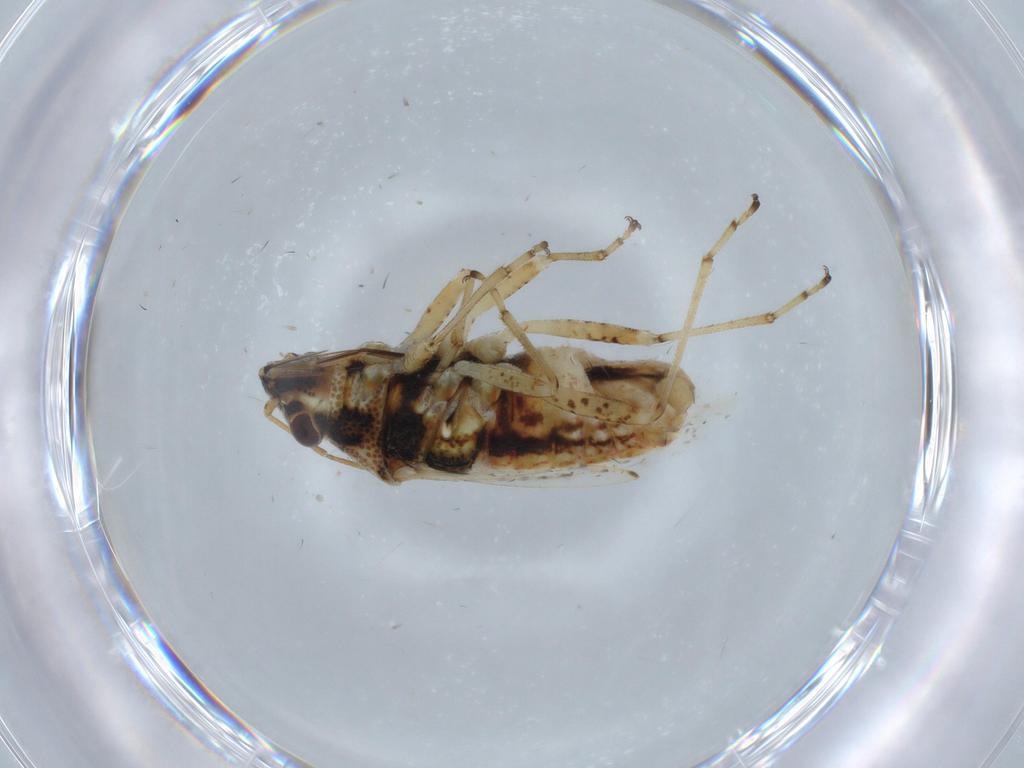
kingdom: Animalia
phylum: Arthropoda
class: Insecta
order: Hemiptera
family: Lygaeidae
